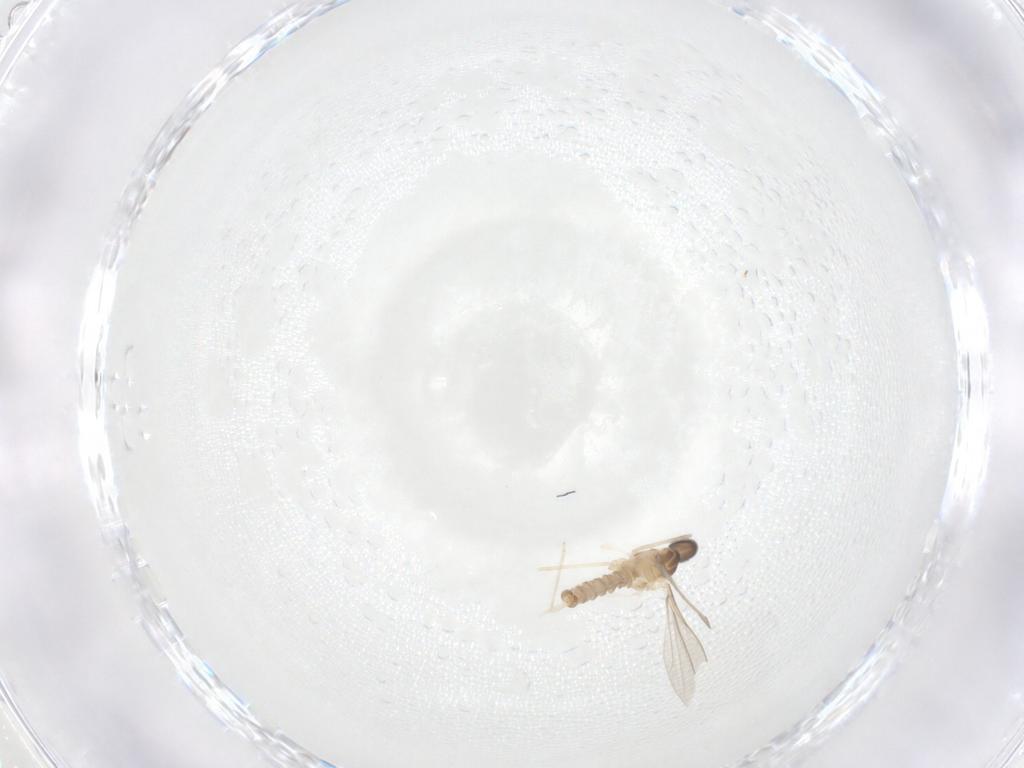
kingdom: Animalia
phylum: Arthropoda
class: Insecta
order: Diptera
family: Cecidomyiidae
